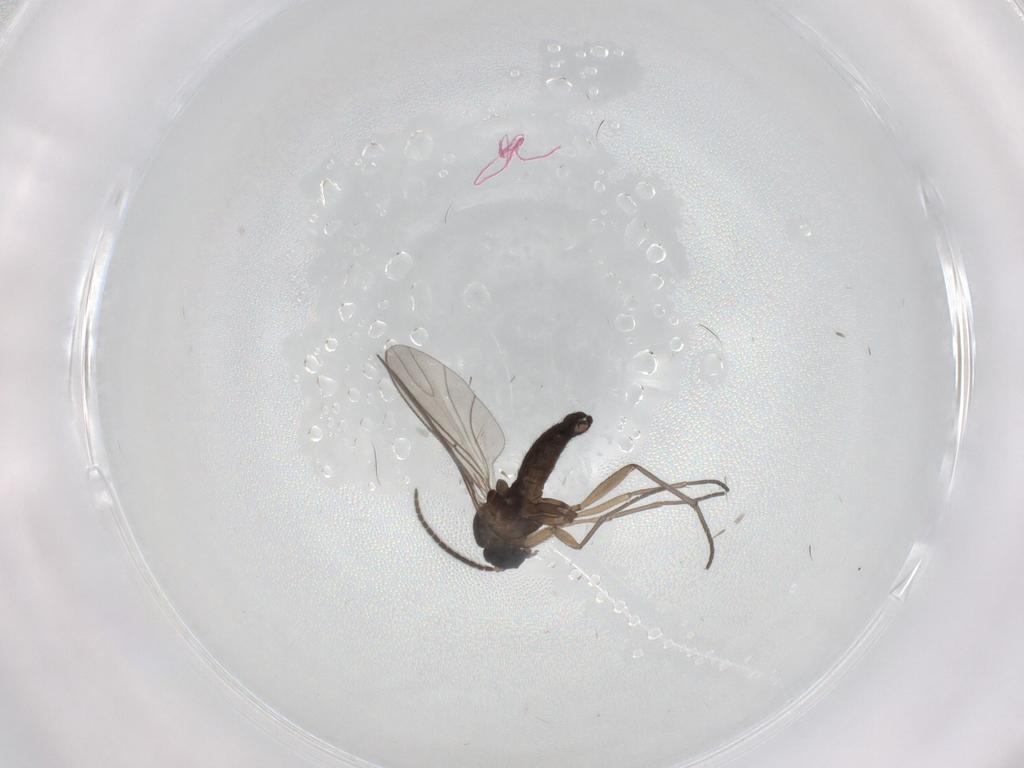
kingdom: Animalia
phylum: Arthropoda
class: Insecta
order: Diptera
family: Sciaridae
